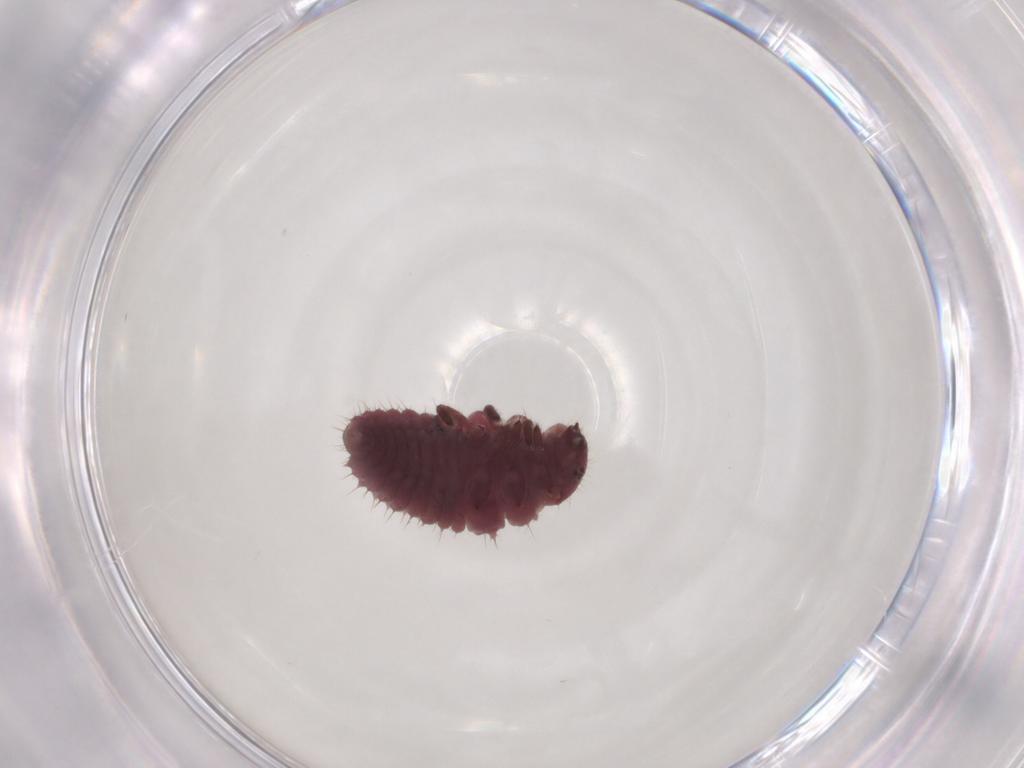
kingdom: Animalia
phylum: Arthropoda
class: Insecta
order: Coleoptera
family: Coccinellidae
